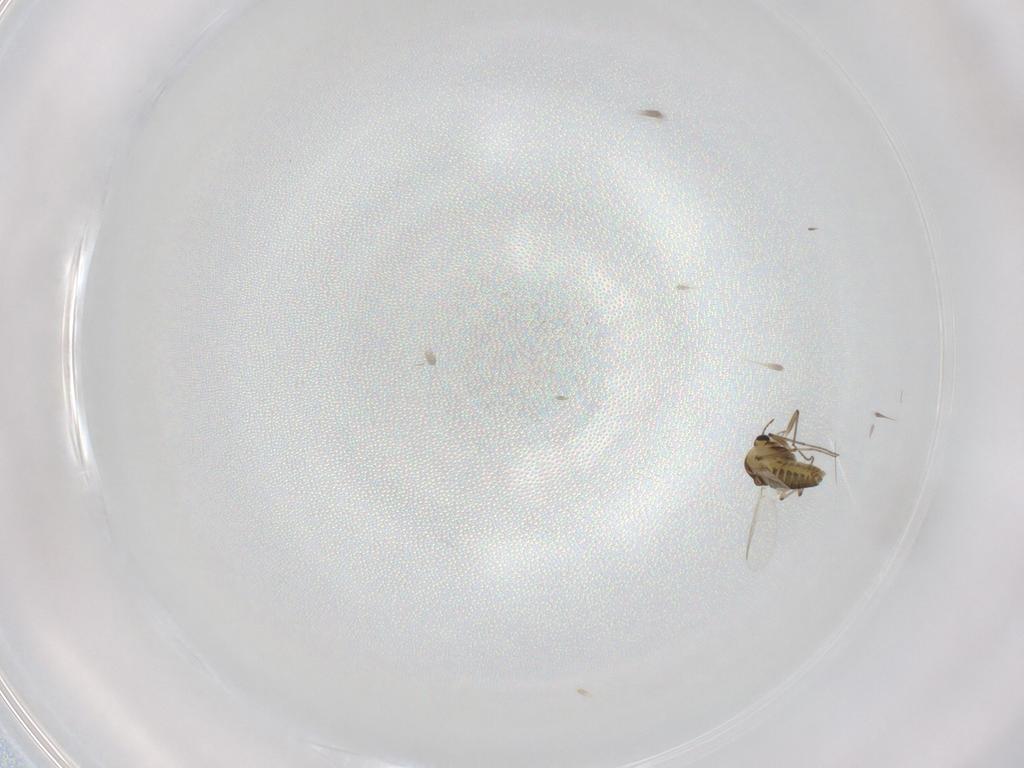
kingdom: Animalia
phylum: Arthropoda
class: Insecta
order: Diptera
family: Chironomidae
